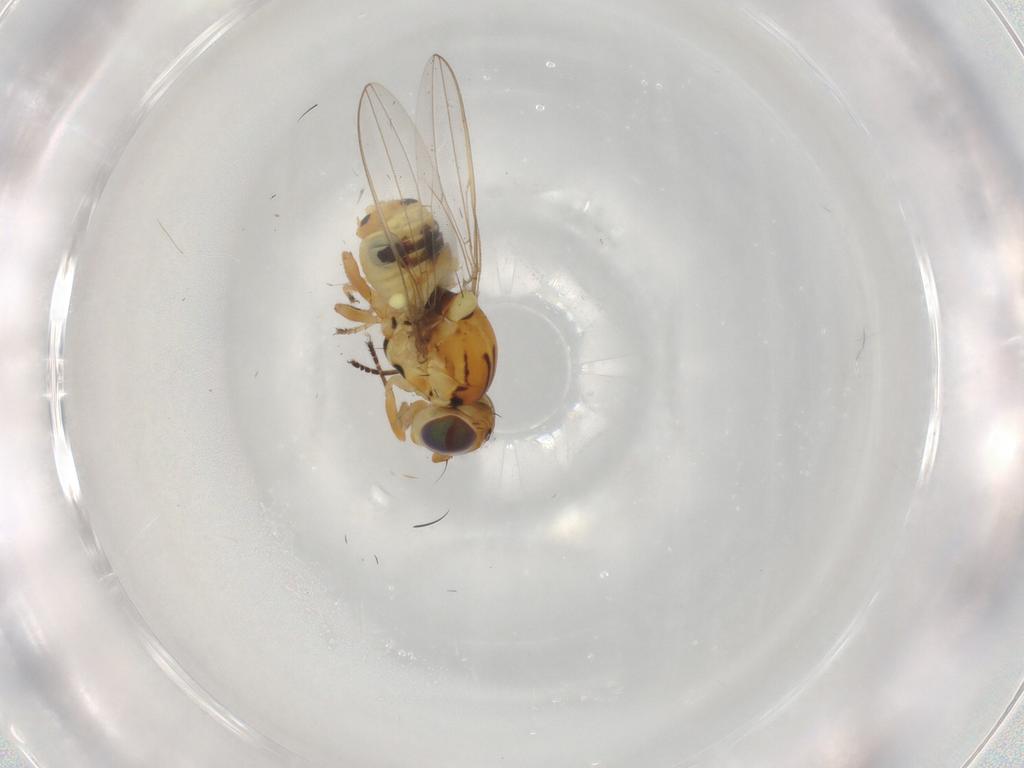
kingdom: Animalia
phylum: Arthropoda
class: Insecta
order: Diptera
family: Asteiidae
